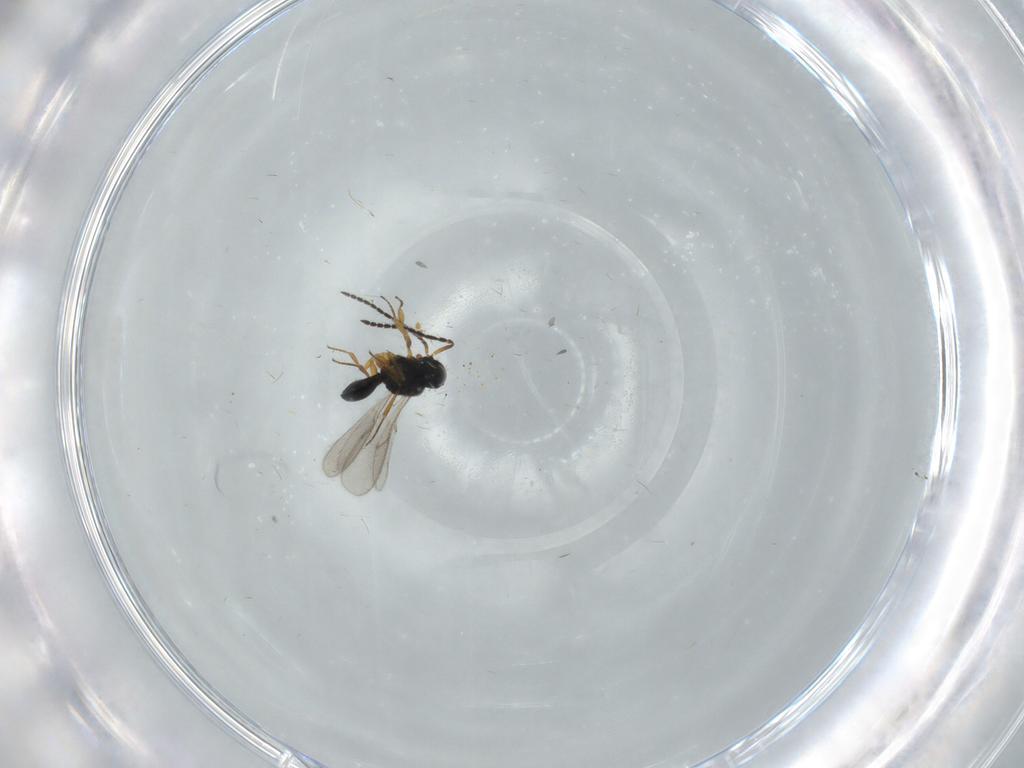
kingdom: Animalia
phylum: Arthropoda
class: Insecta
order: Hymenoptera
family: Scelionidae
